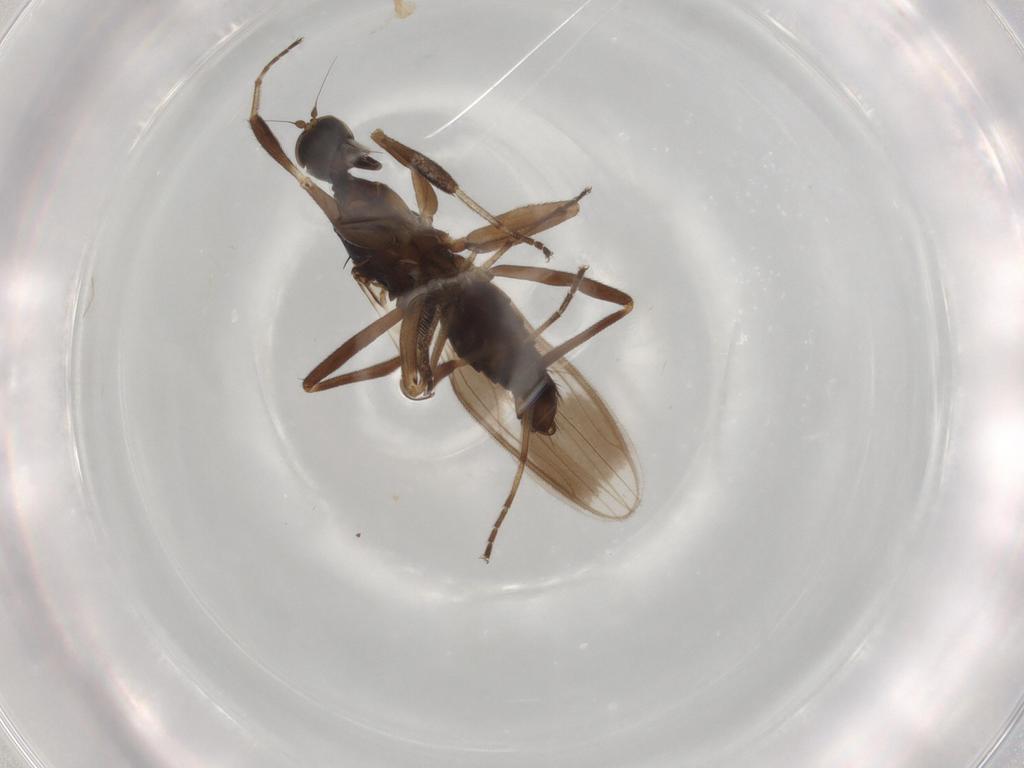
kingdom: Animalia
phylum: Arthropoda
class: Insecta
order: Diptera
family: Hybotidae
